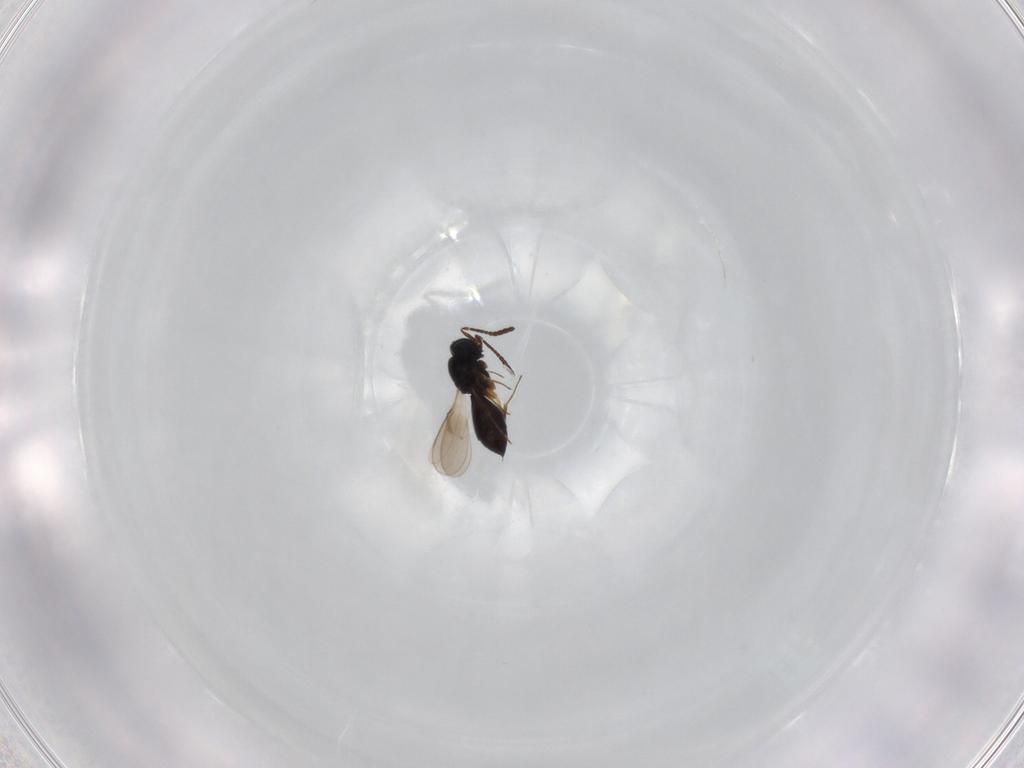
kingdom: Animalia
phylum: Arthropoda
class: Insecta
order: Hymenoptera
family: Scelionidae
